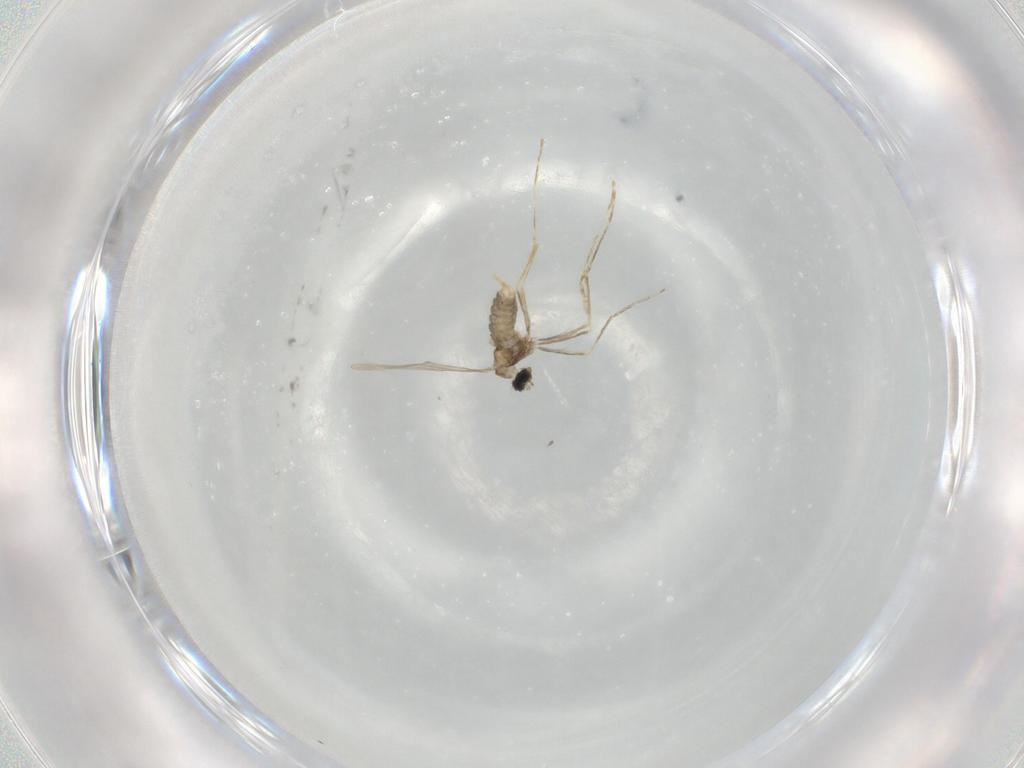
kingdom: Animalia
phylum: Arthropoda
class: Insecta
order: Diptera
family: Cecidomyiidae
